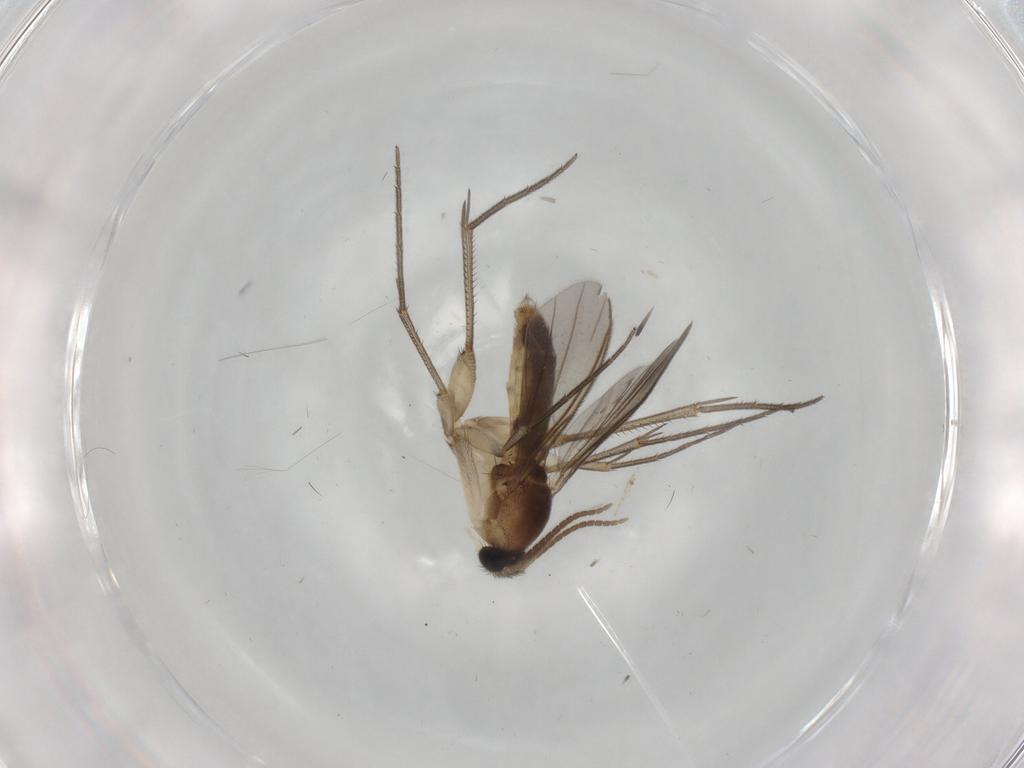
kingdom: Animalia
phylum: Arthropoda
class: Insecta
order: Diptera
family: Mycetophilidae
